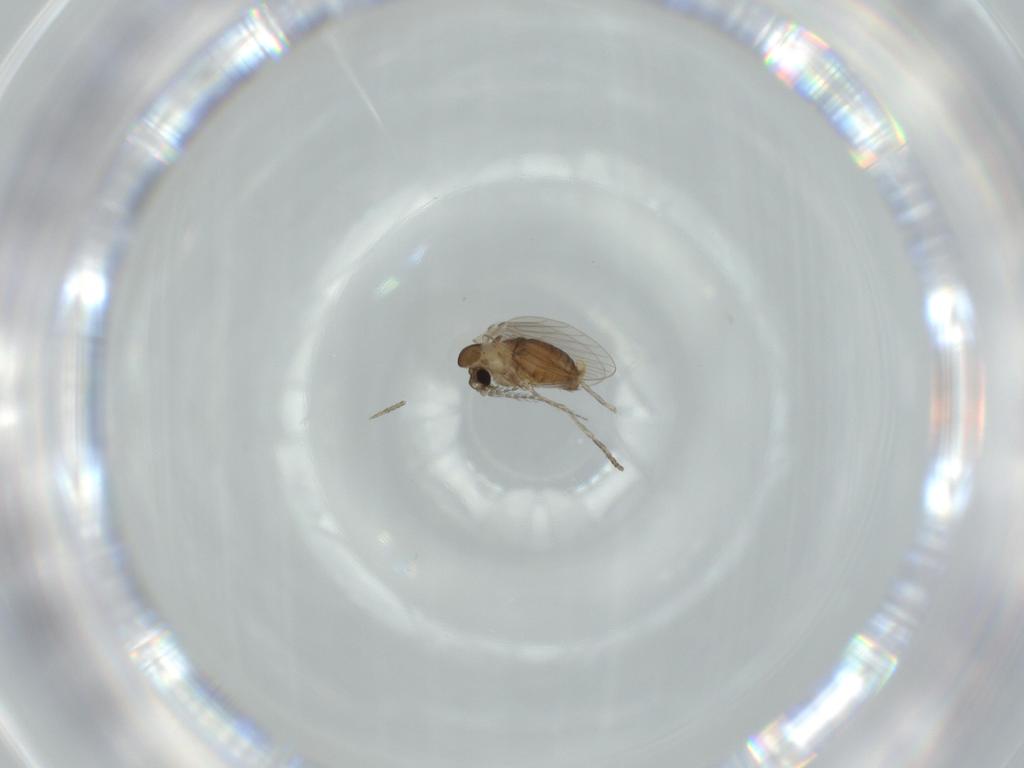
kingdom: Animalia
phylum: Arthropoda
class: Insecta
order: Diptera
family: Psychodidae
